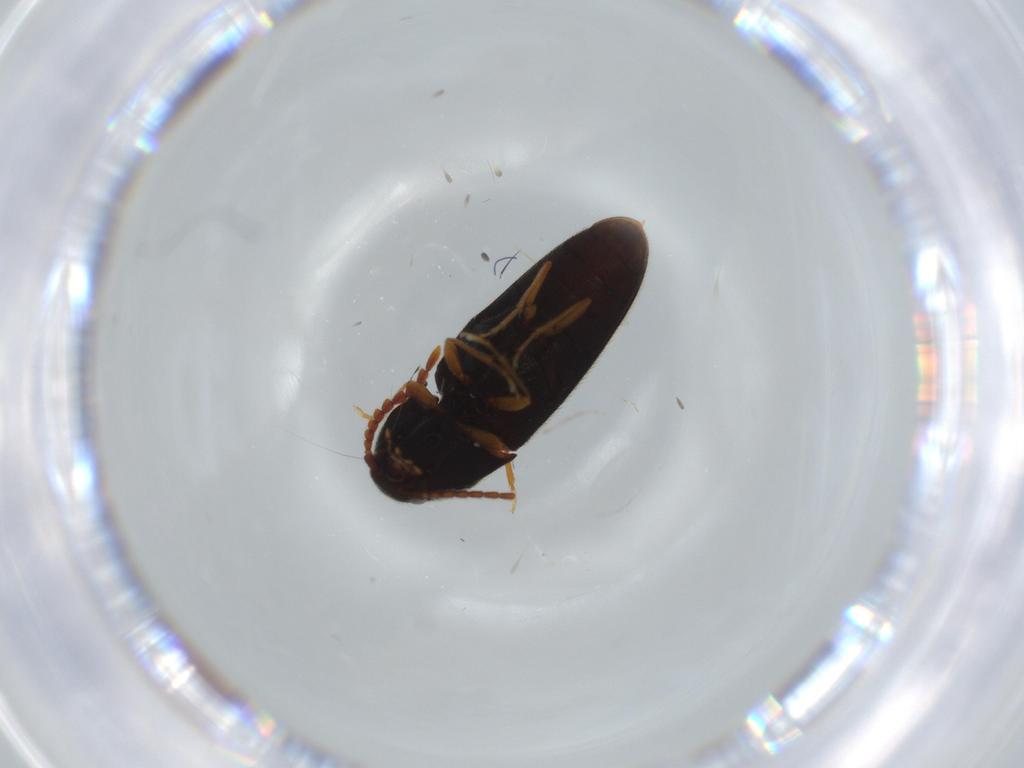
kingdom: Animalia
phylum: Arthropoda
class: Insecta
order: Coleoptera
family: Elateridae
